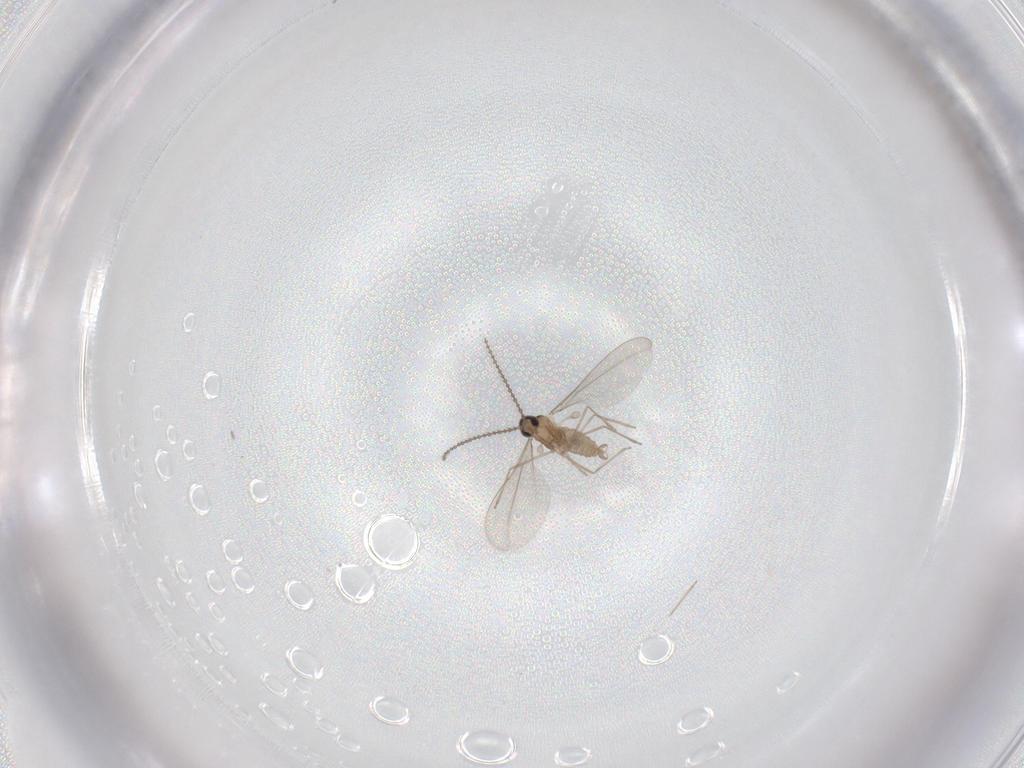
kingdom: Animalia
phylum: Arthropoda
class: Insecta
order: Diptera
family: Cecidomyiidae
